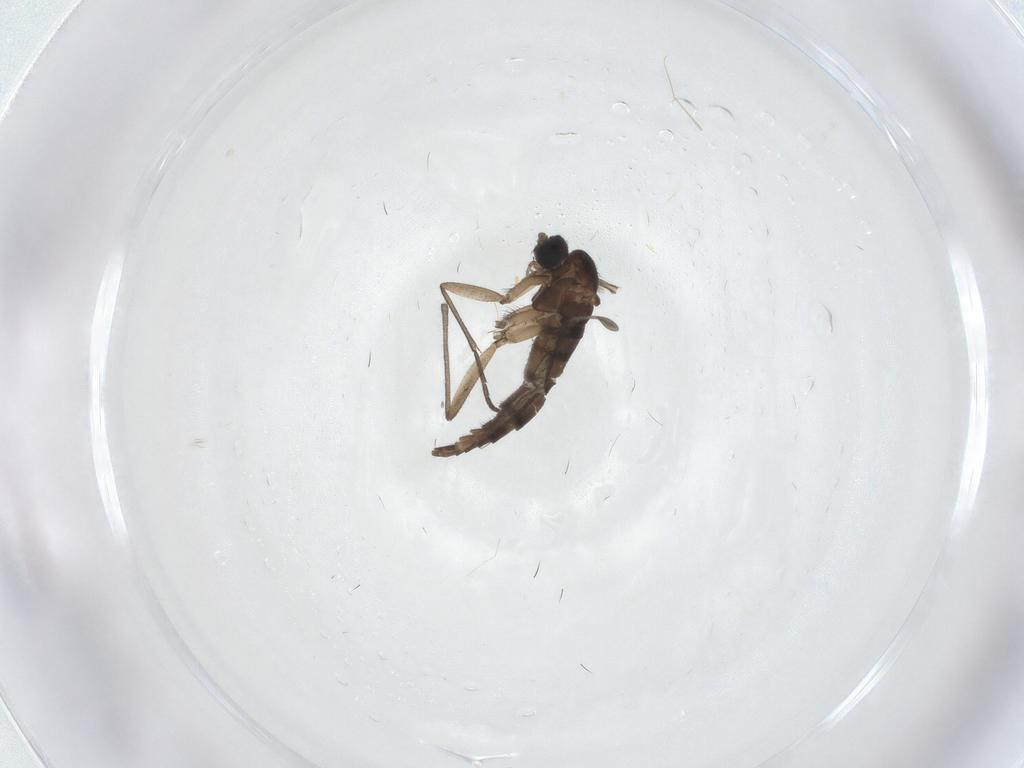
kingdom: Animalia
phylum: Arthropoda
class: Insecta
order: Diptera
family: Sciaridae
